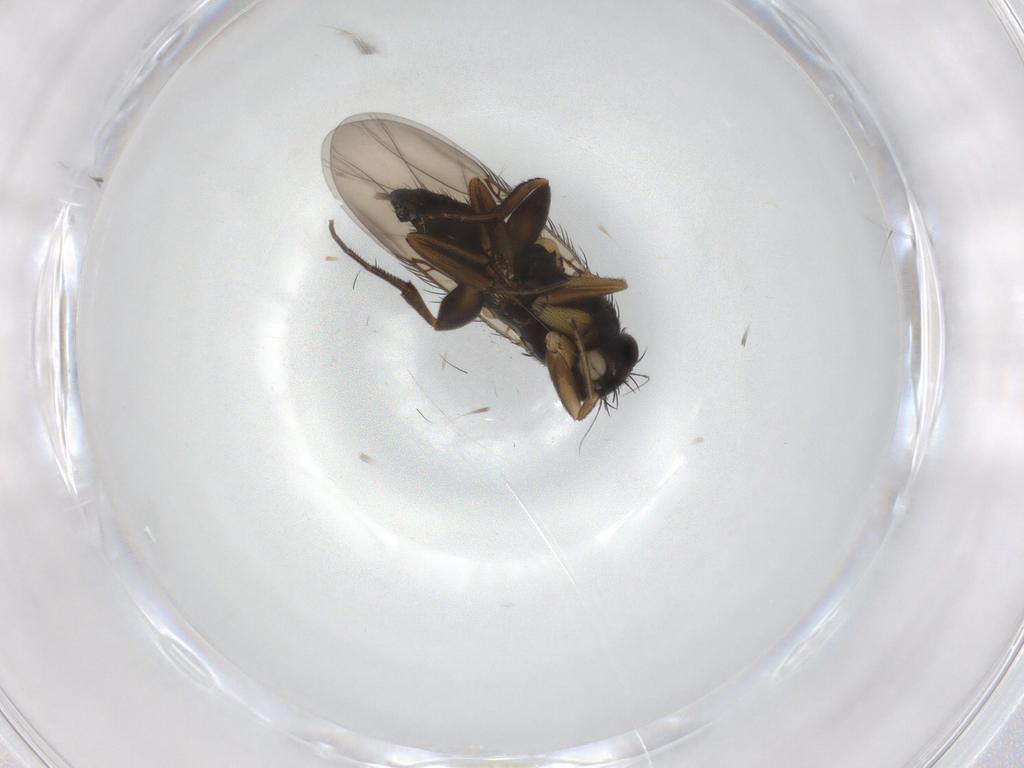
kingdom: Animalia
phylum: Arthropoda
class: Insecta
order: Diptera
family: Phoridae
